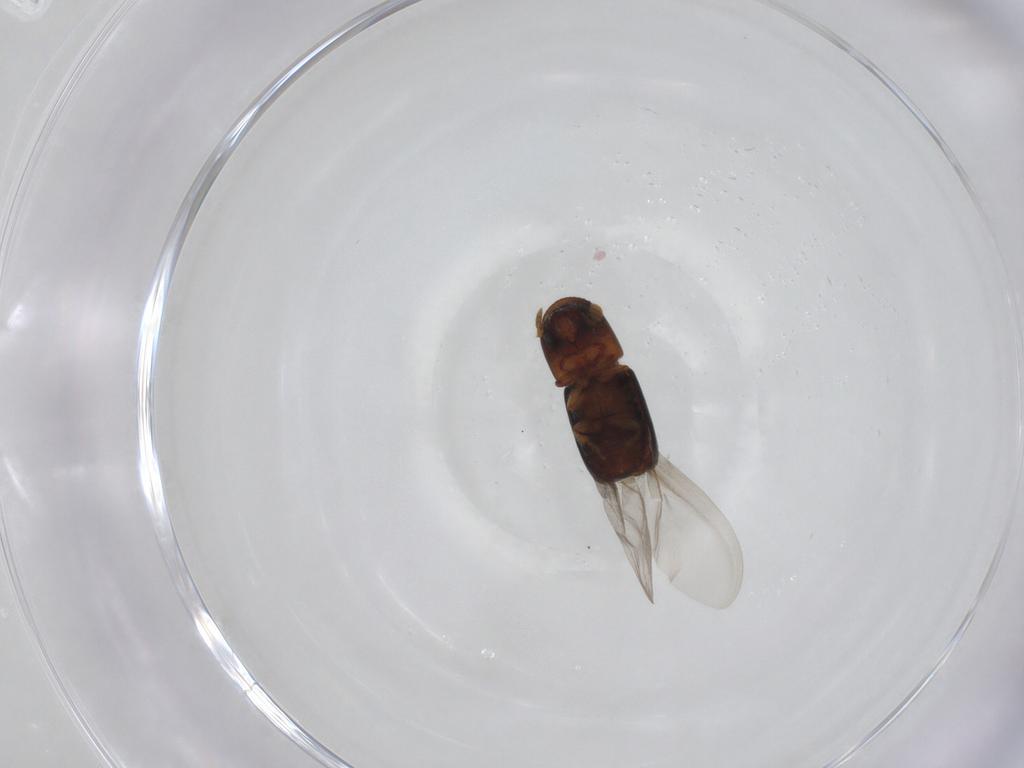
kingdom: Animalia
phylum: Arthropoda
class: Insecta
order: Coleoptera
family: Curculionidae
